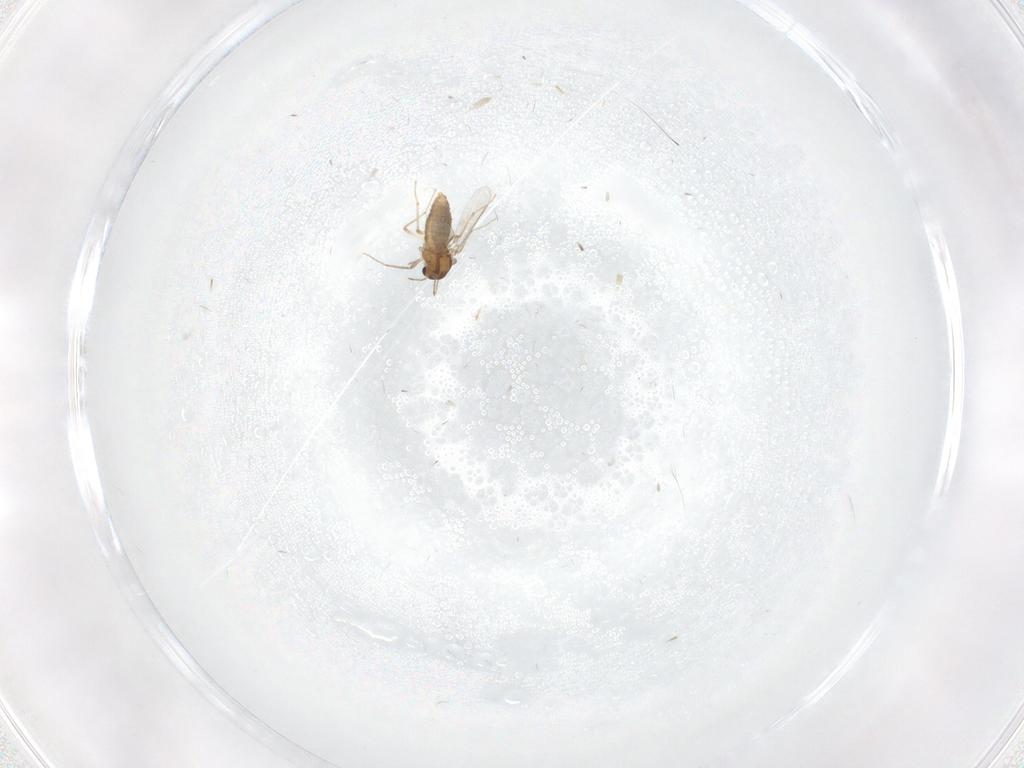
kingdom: Animalia
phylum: Arthropoda
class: Insecta
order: Diptera
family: Chironomidae
